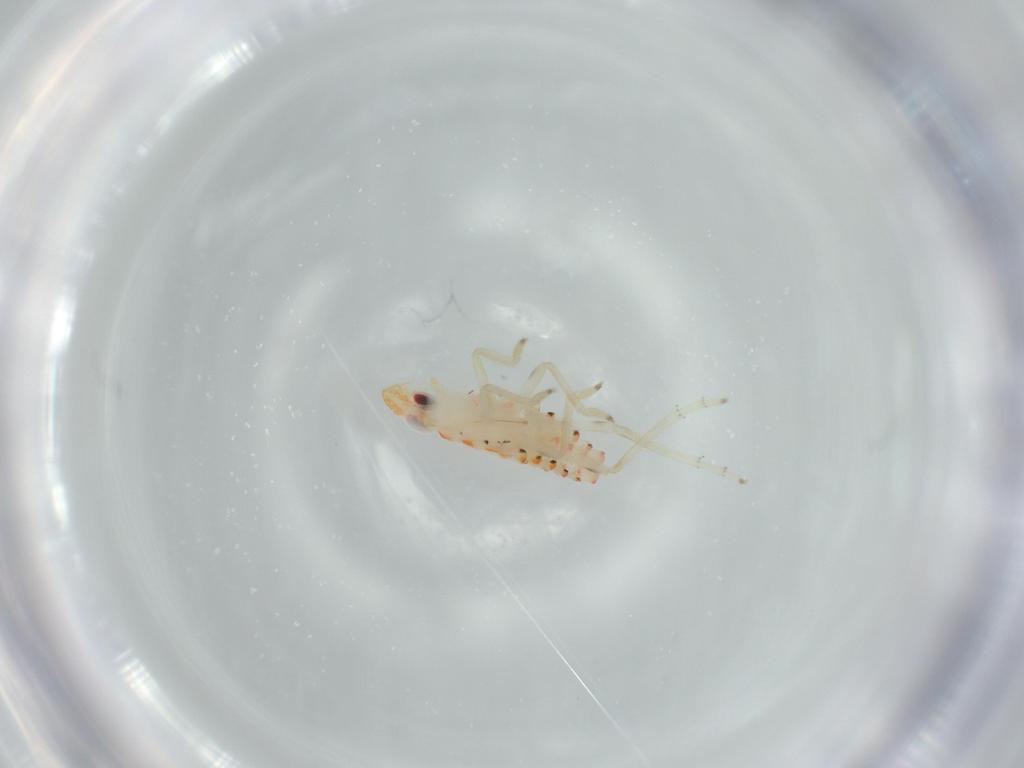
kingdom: Animalia
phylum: Arthropoda
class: Insecta
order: Hemiptera
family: Tropiduchidae
